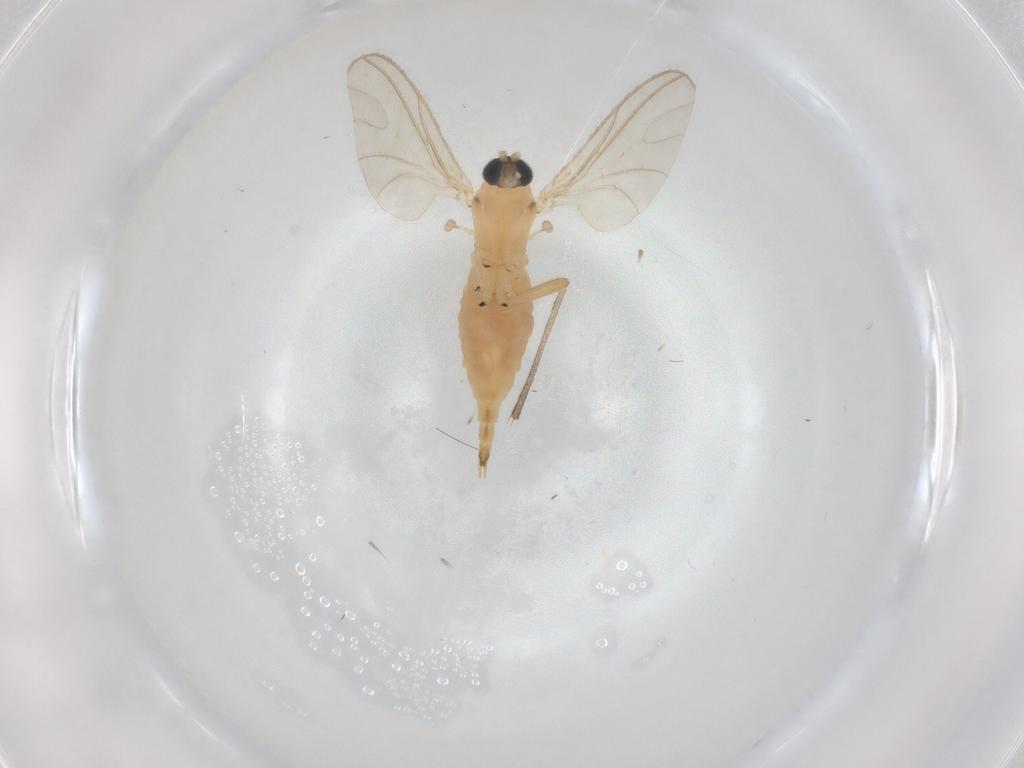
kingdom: Animalia
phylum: Arthropoda
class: Insecta
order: Diptera
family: Sciaridae
